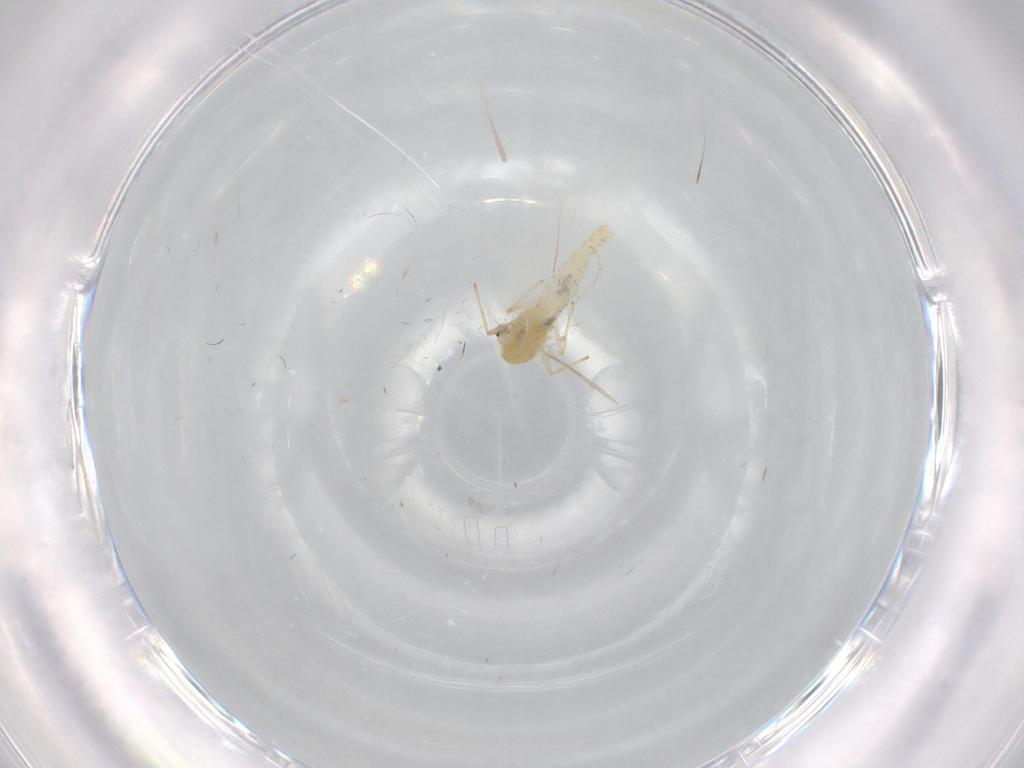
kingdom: Animalia
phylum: Arthropoda
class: Insecta
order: Diptera
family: Chironomidae
